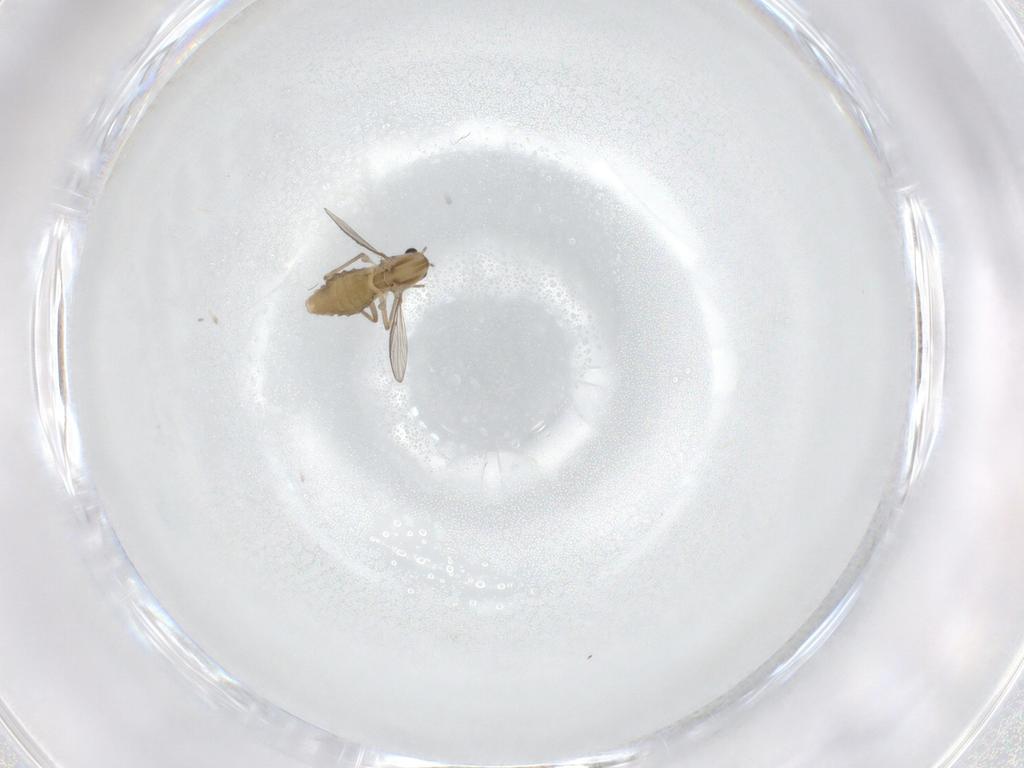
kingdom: Animalia
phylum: Arthropoda
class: Insecta
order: Diptera
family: Chironomidae
